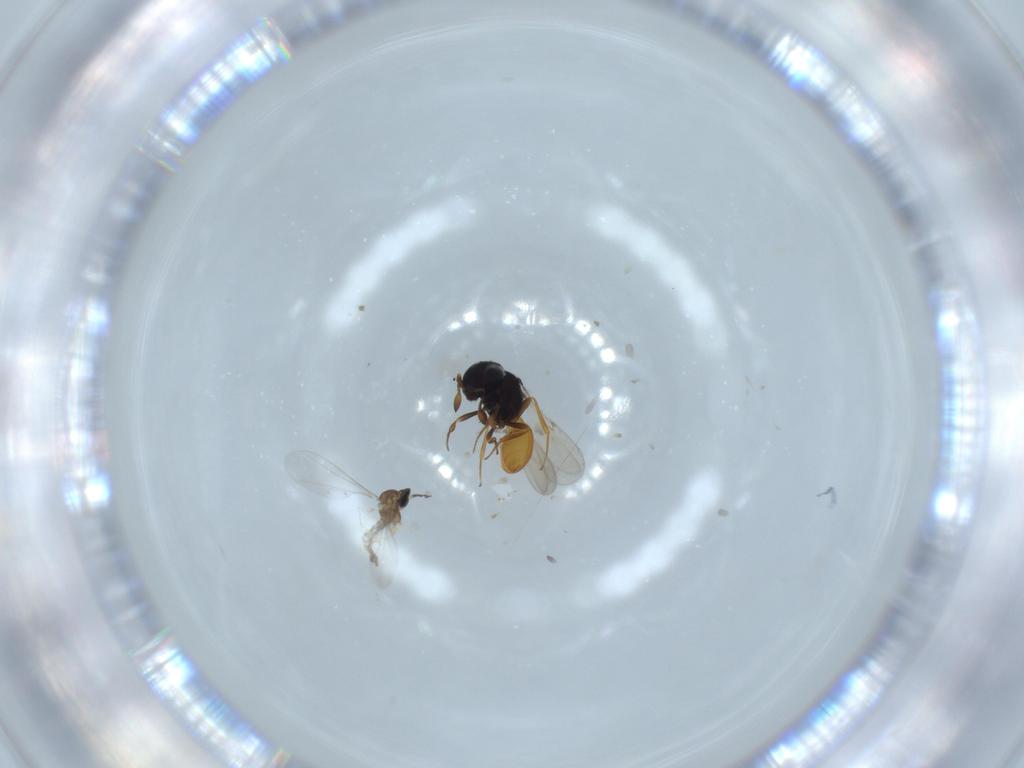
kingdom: Animalia
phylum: Arthropoda
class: Insecta
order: Hymenoptera
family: Scelionidae
